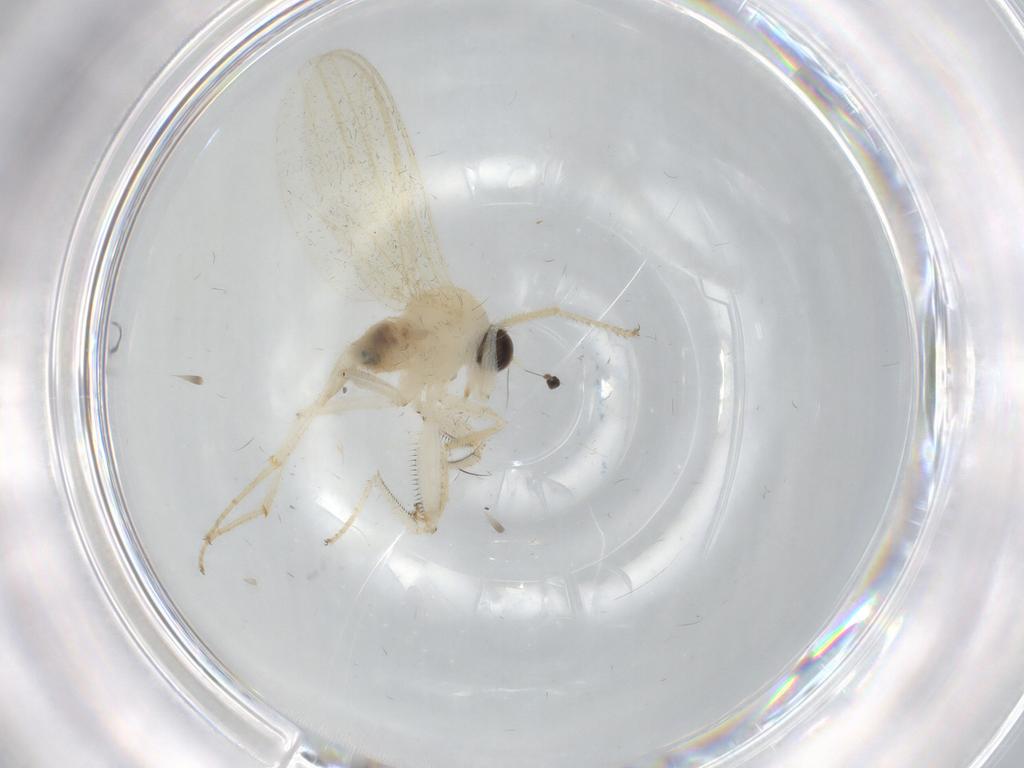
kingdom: Animalia
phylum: Arthropoda
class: Insecta
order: Diptera
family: Hybotidae
